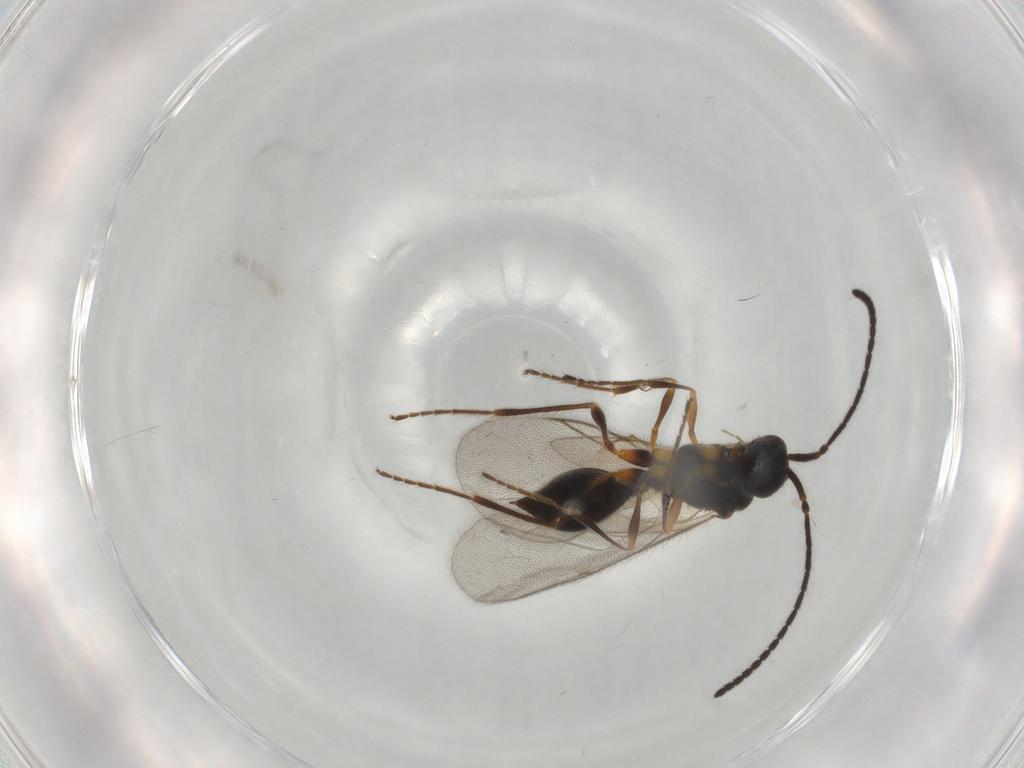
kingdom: Animalia
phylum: Arthropoda
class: Insecta
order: Hymenoptera
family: Diapriidae
